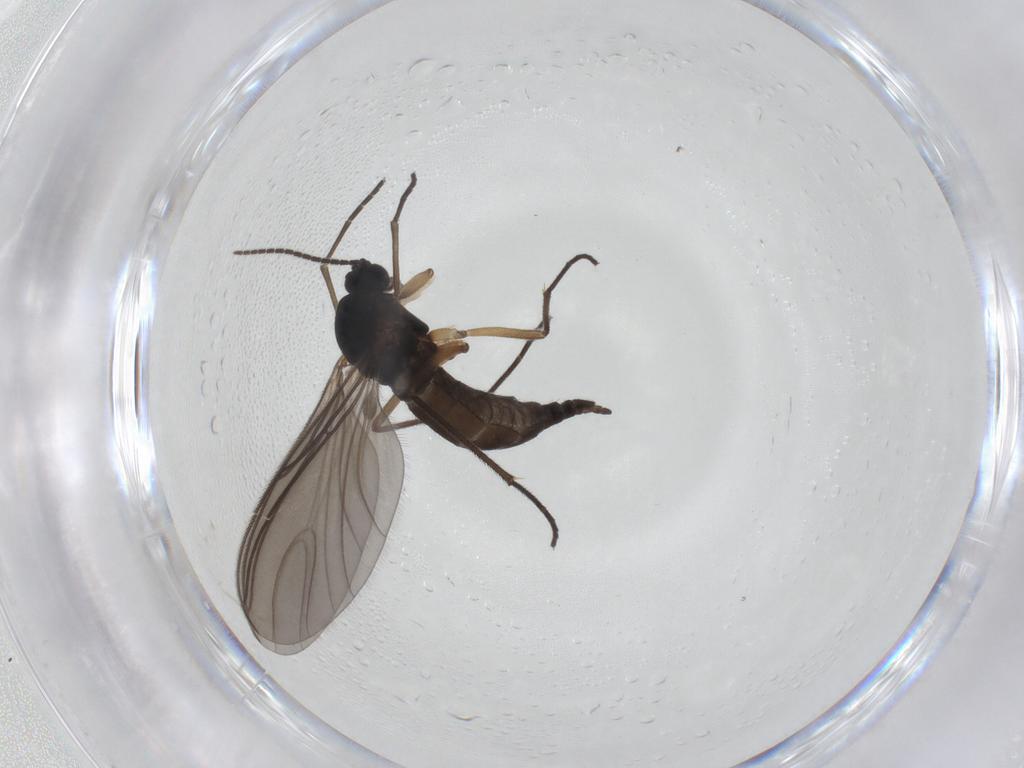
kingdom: Animalia
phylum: Arthropoda
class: Insecta
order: Diptera
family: Sciaridae
